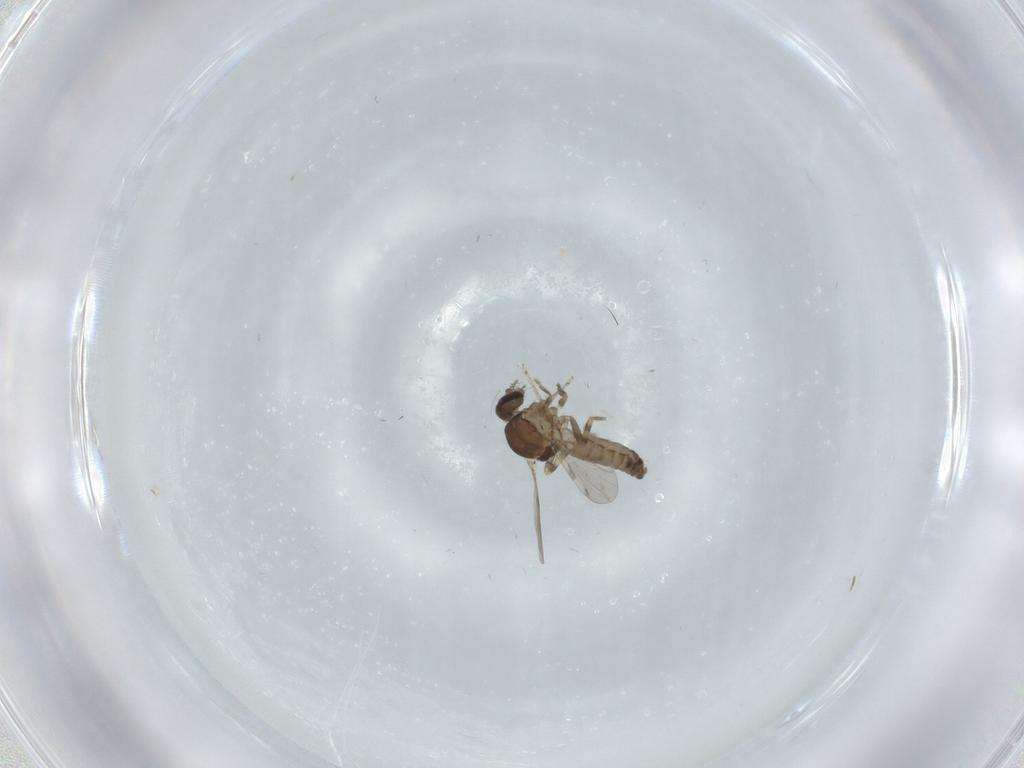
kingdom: Animalia
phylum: Arthropoda
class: Insecta
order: Diptera
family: Ceratopogonidae
